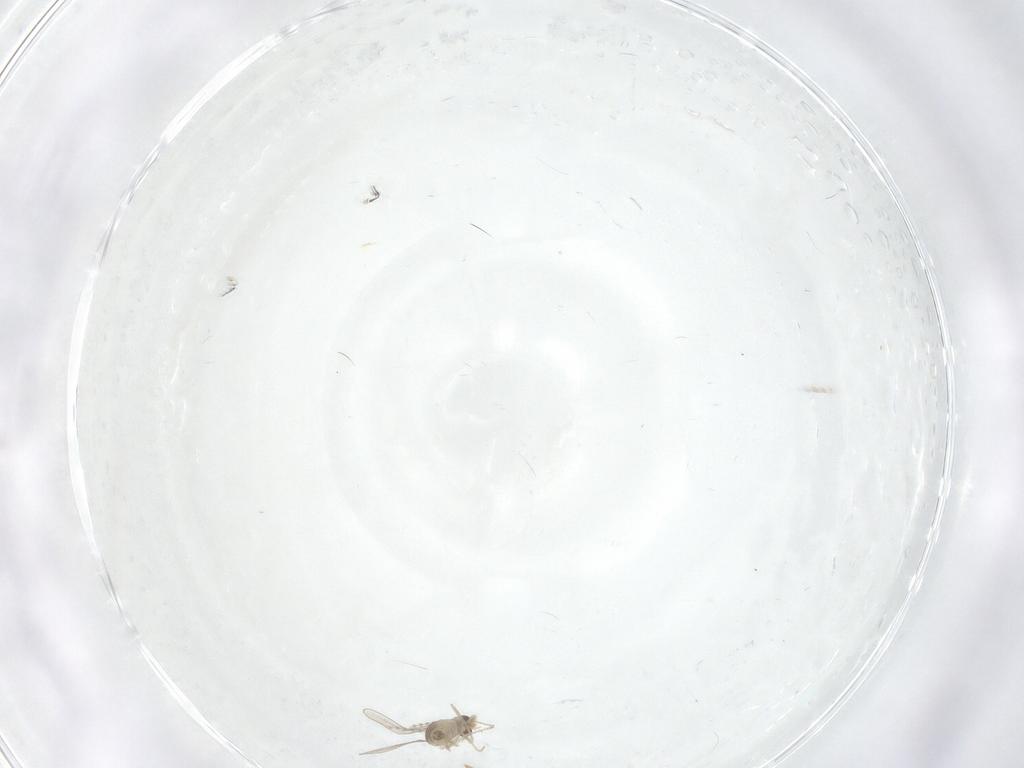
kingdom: Animalia
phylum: Arthropoda
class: Insecta
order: Diptera
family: Chironomidae
